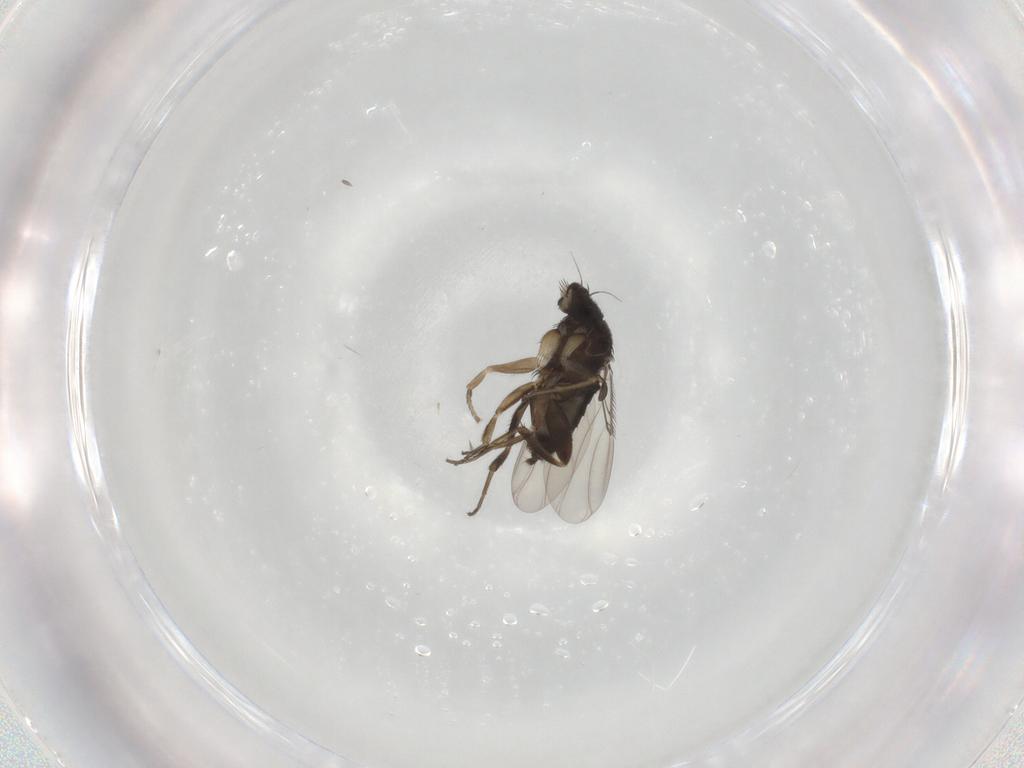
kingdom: Animalia
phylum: Arthropoda
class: Insecta
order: Diptera
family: Phoridae
